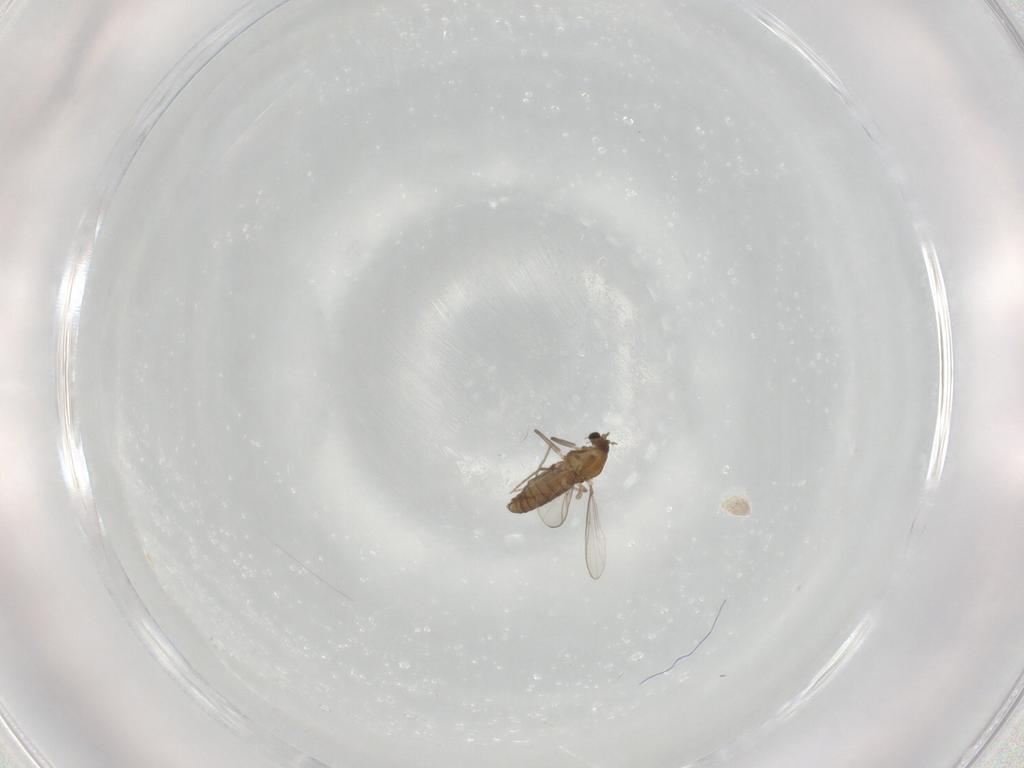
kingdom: Animalia
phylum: Arthropoda
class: Insecta
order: Diptera
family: Chironomidae
